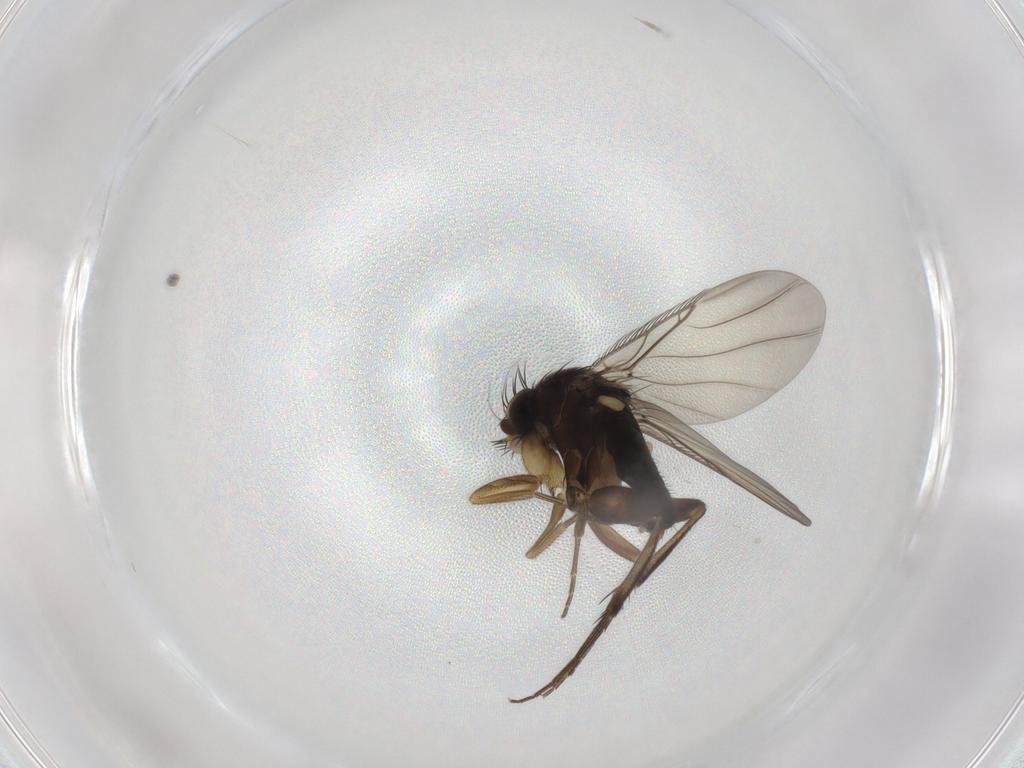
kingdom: Animalia
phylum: Arthropoda
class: Insecta
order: Diptera
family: Phoridae
